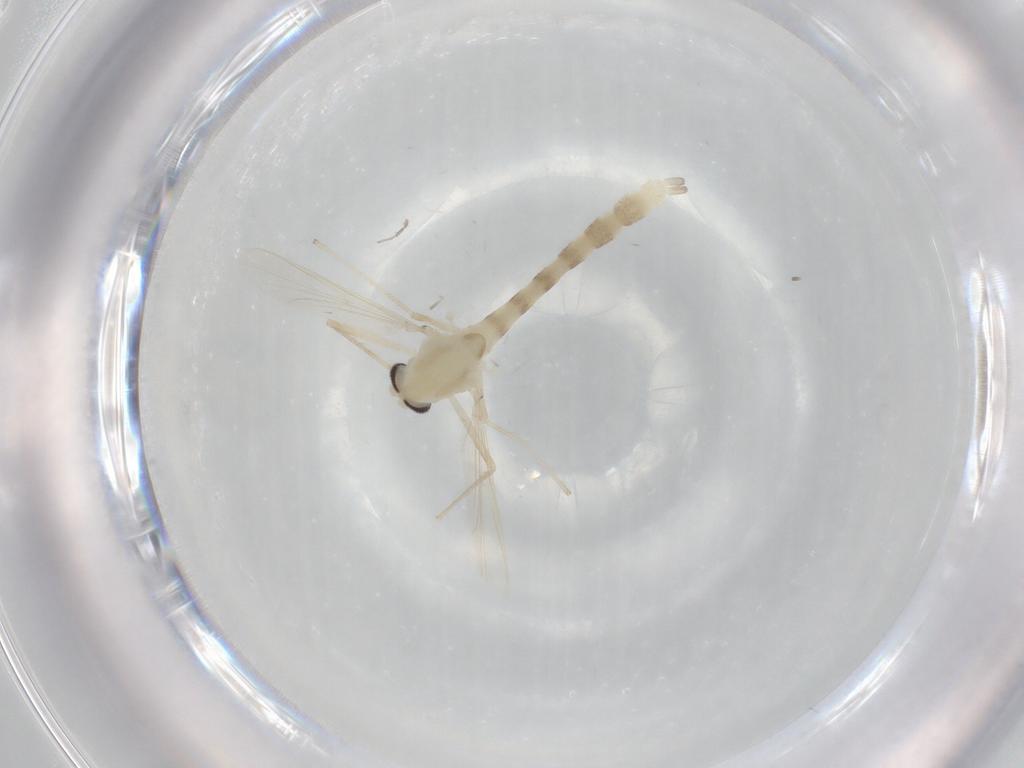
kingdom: Animalia
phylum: Arthropoda
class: Insecta
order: Diptera
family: Chironomidae
